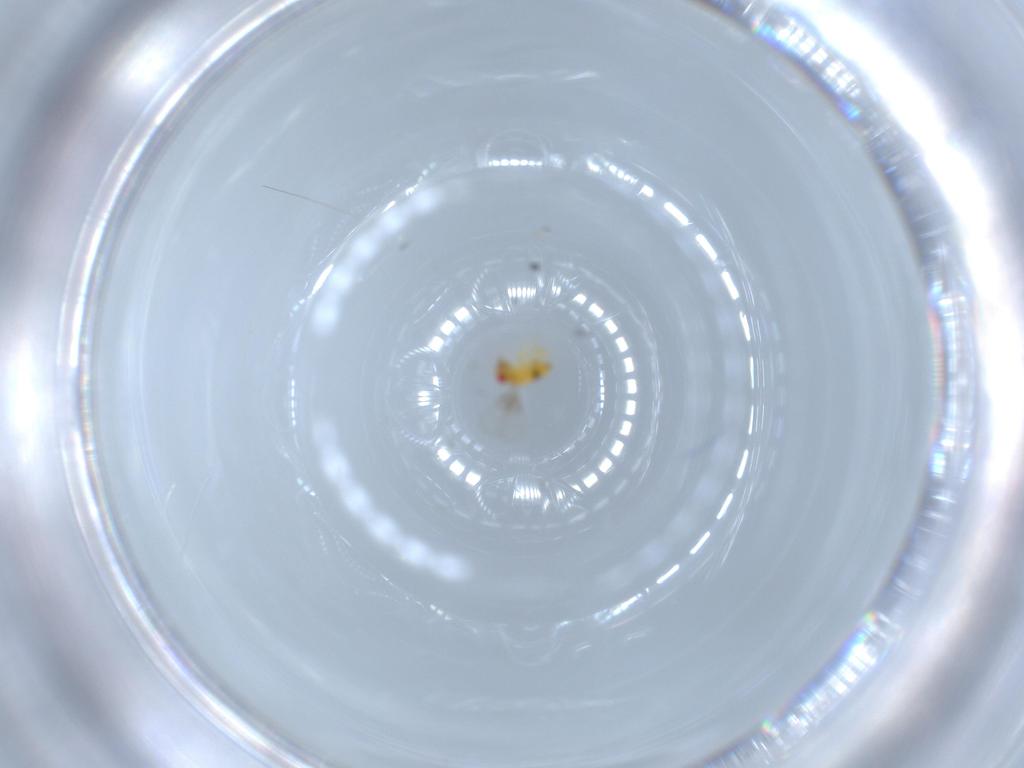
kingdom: Animalia
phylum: Arthropoda
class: Insecta
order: Hymenoptera
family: Trichogrammatidae
